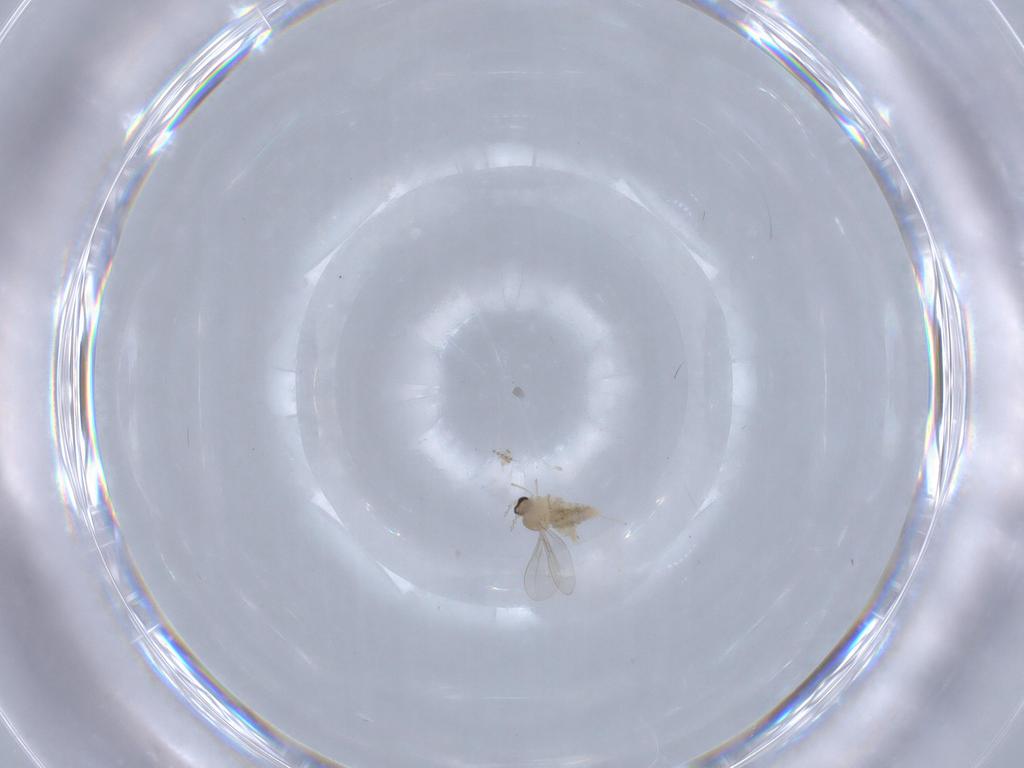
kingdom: Animalia
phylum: Arthropoda
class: Insecta
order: Diptera
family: Cecidomyiidae
